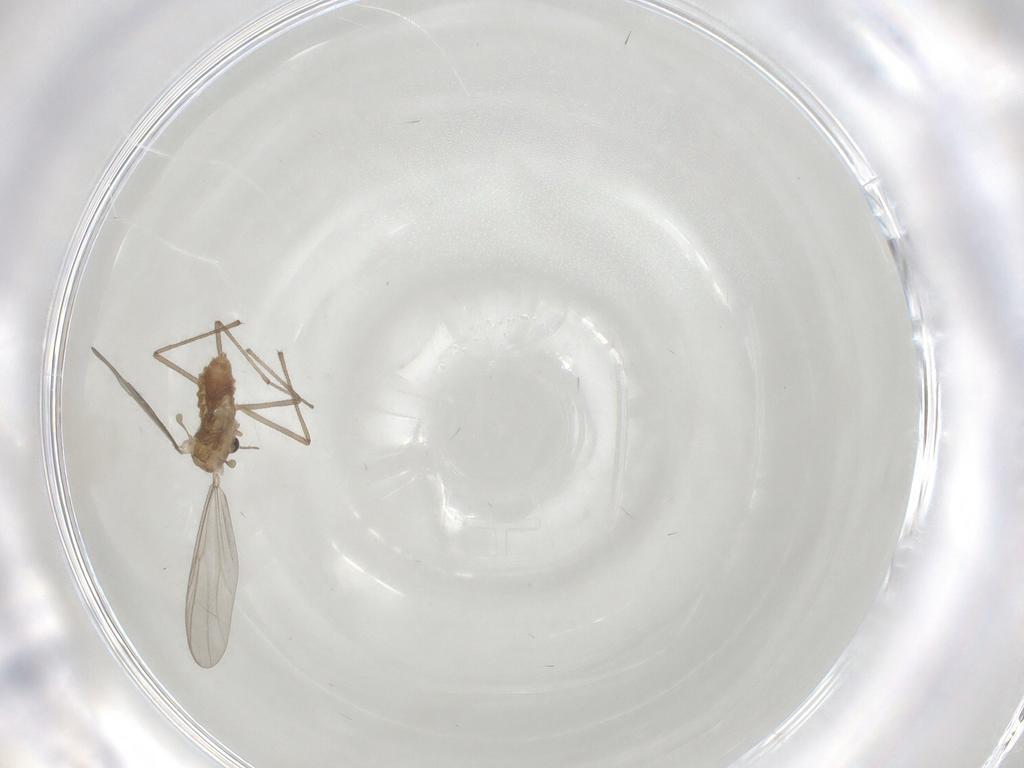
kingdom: Animalia
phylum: Arthropoda
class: Insecta
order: Diptera
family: Chironomidae
